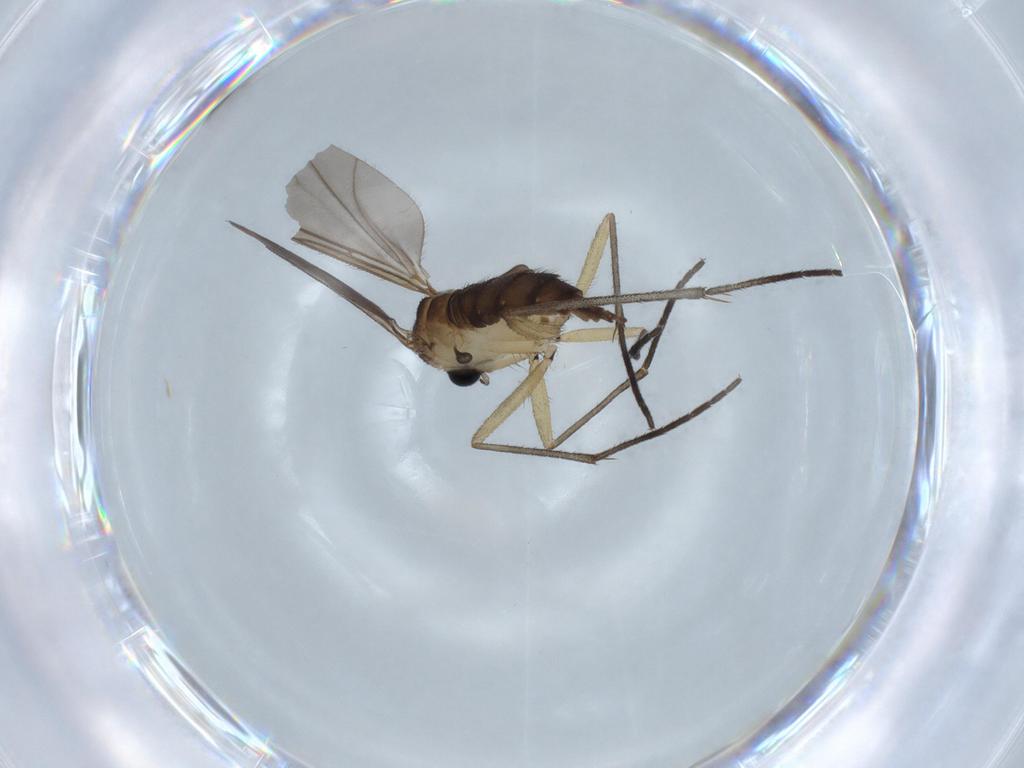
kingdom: Animalia
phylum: Arthropoda
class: Insecta
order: Diptera
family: Sciaridae
